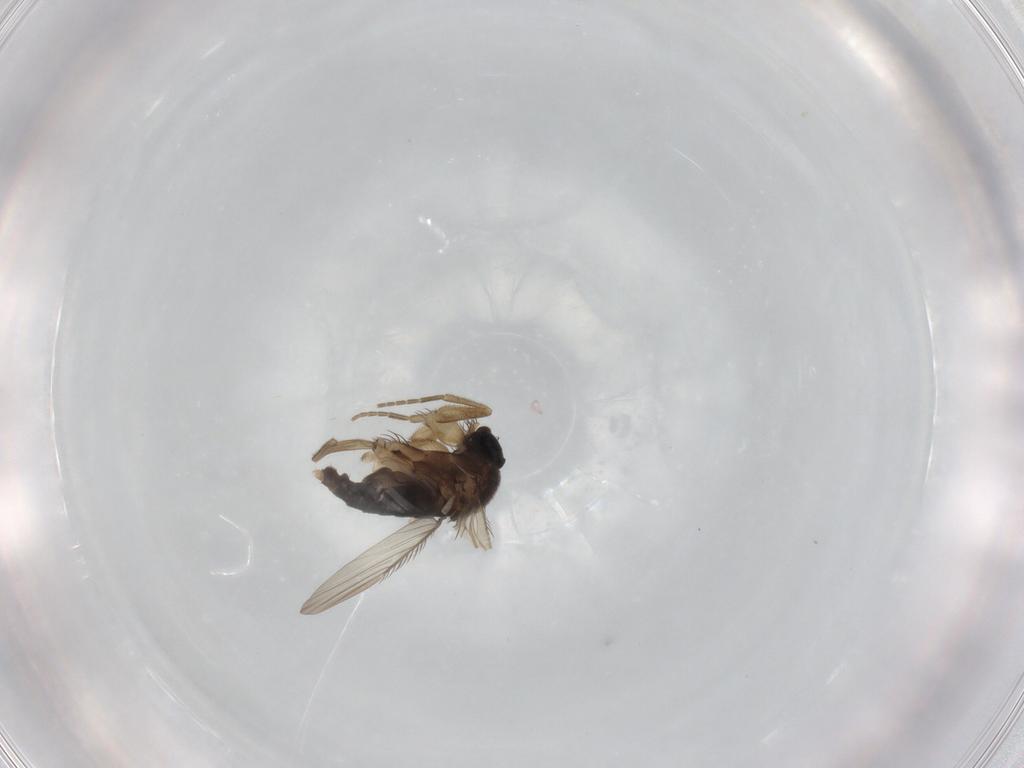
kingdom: Animalia
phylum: Arthropoda
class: Insecta
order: Diptera
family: Phoridae
